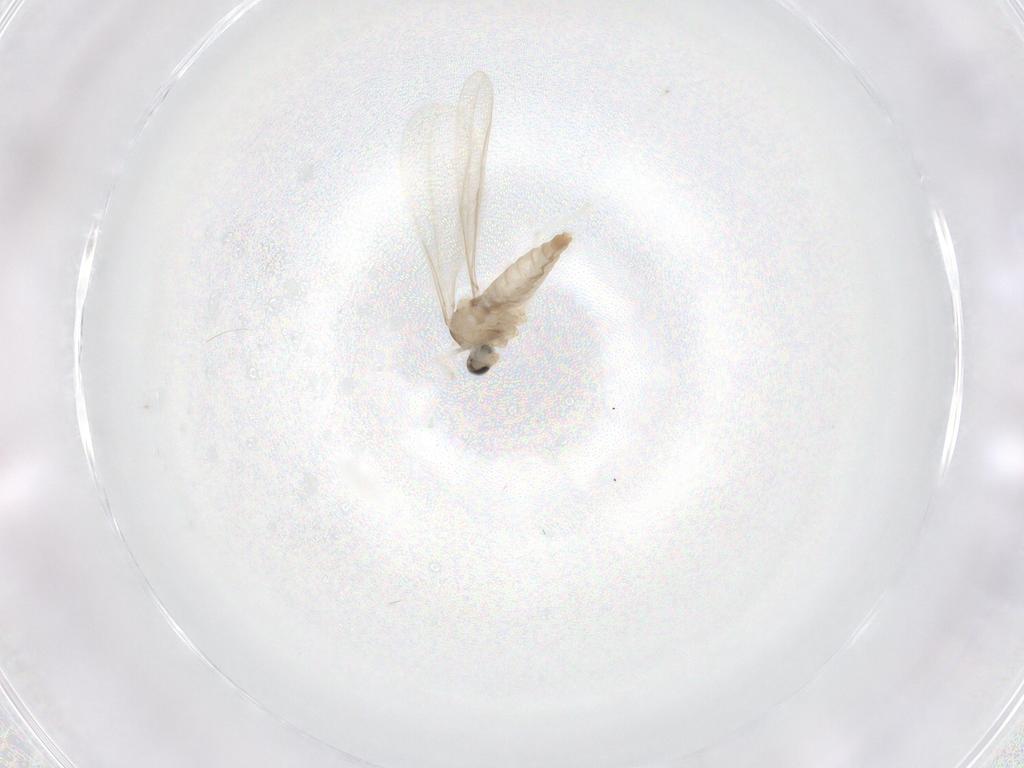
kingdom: Animalia
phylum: Arthropoda
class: Insecta
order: Diptera
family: Cecidomyiidae
